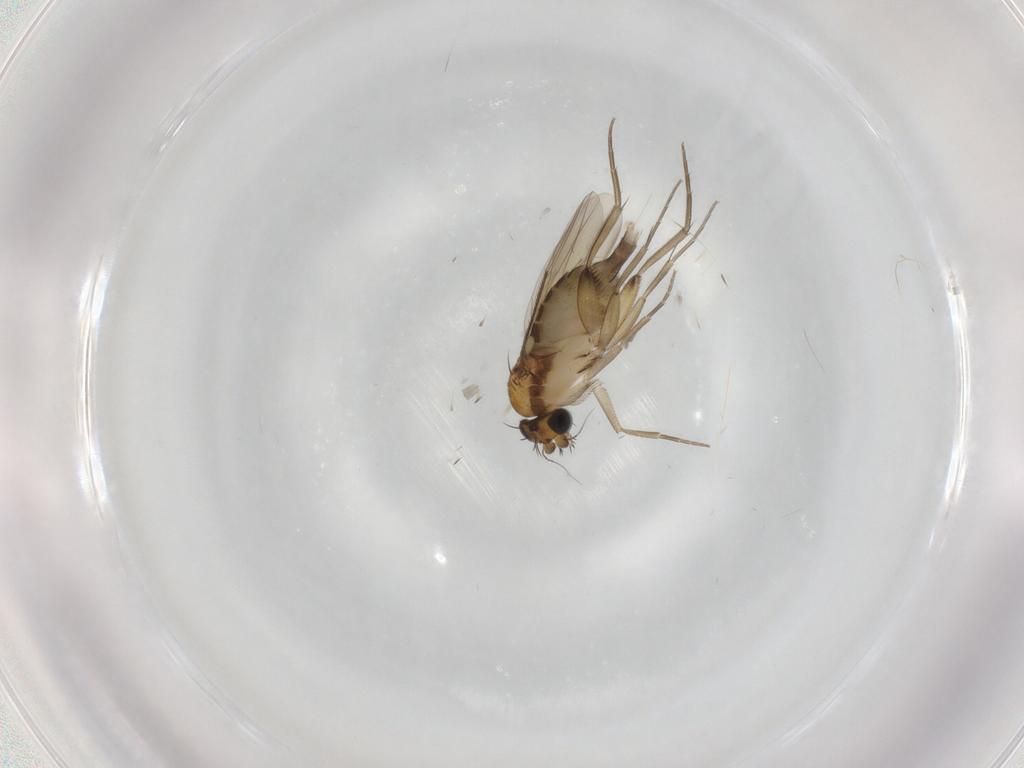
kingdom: Animalia
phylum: Arthropoda
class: Insecta
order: Diptera
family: Phoridae
